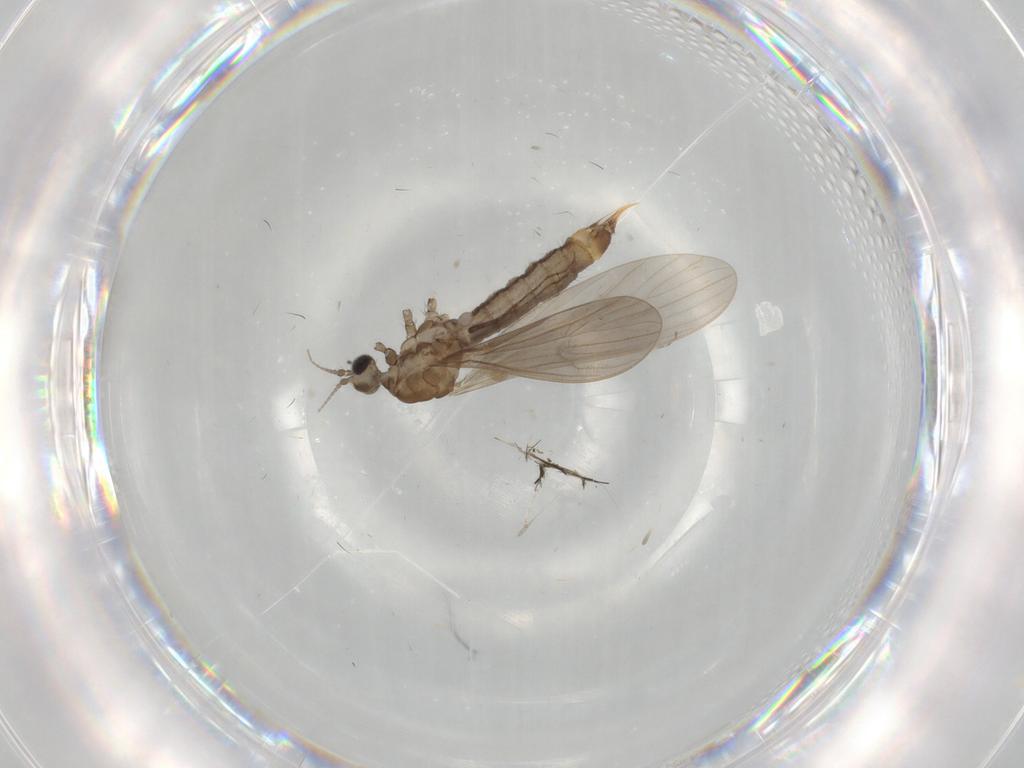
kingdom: Animalia
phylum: Arthropoda
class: Insecta
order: Diptera
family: Limoniidae
